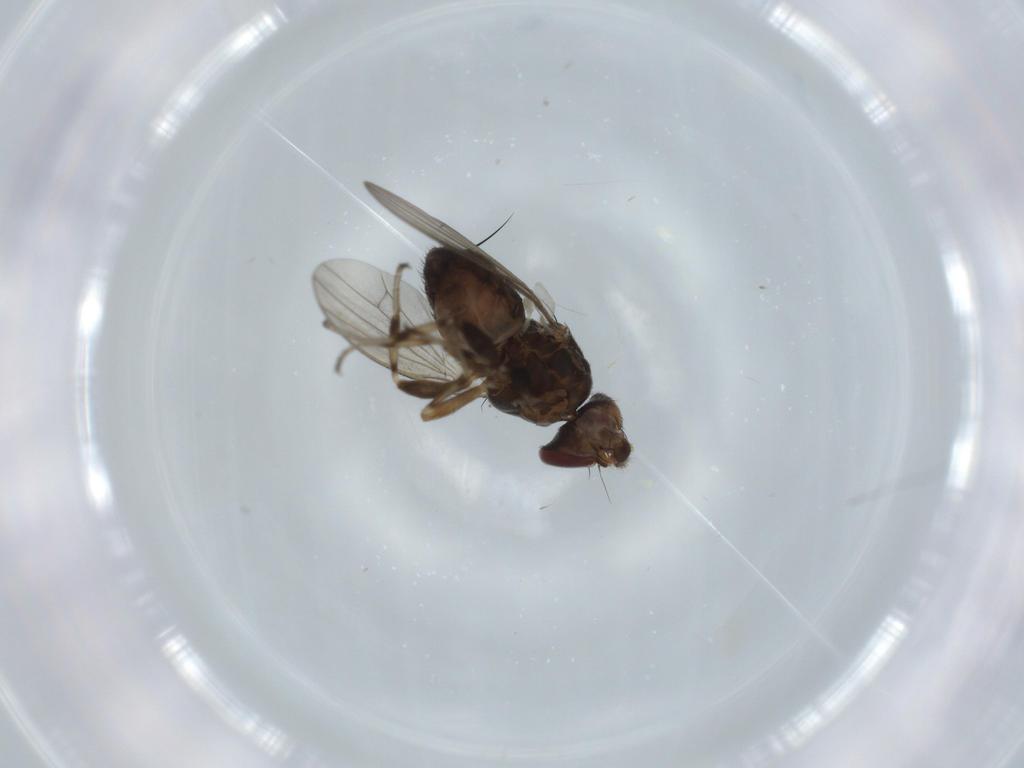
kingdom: Animalia
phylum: Arthropoda
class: Insecta
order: Diptera
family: Heleomyzidae
